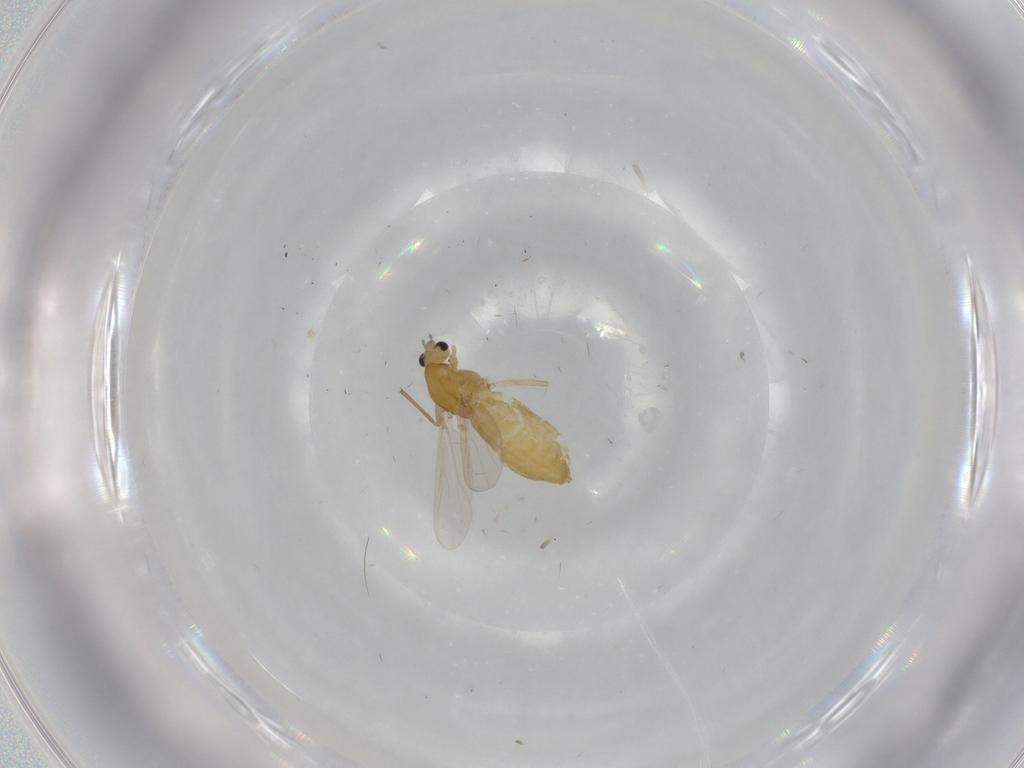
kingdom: Animalia
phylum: Arthropoda
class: Insecta
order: Diptera
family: Chironomidae
